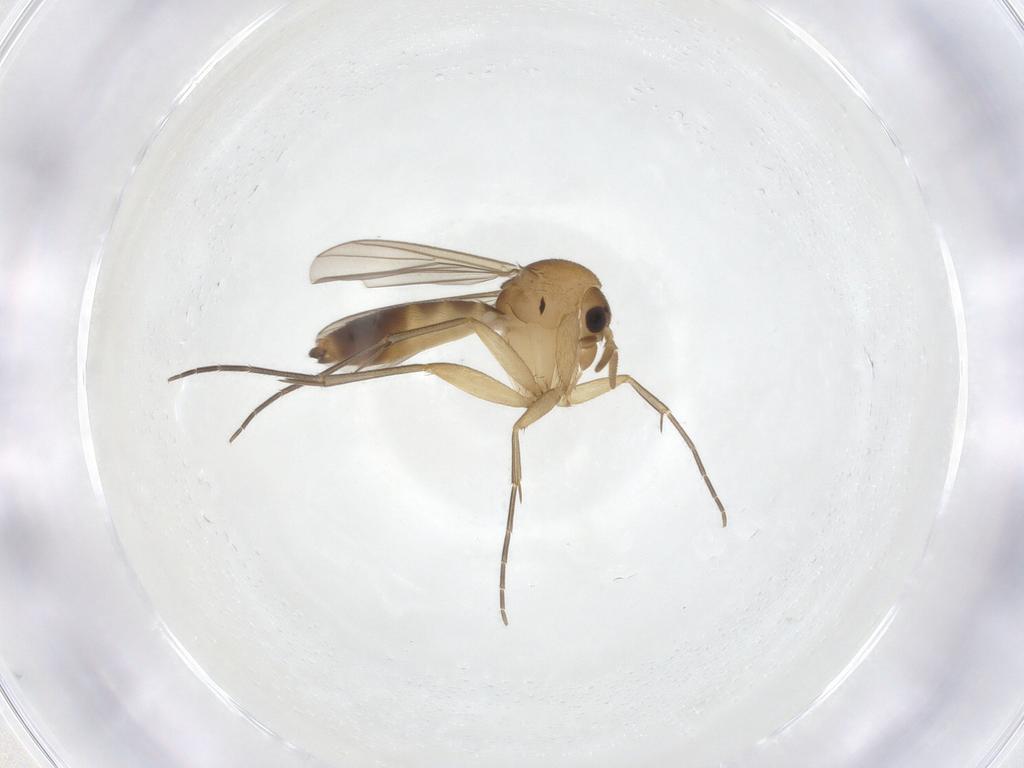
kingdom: Animalia
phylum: Arthropoda
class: Insecta
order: Diptera
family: Mycetophilidae
